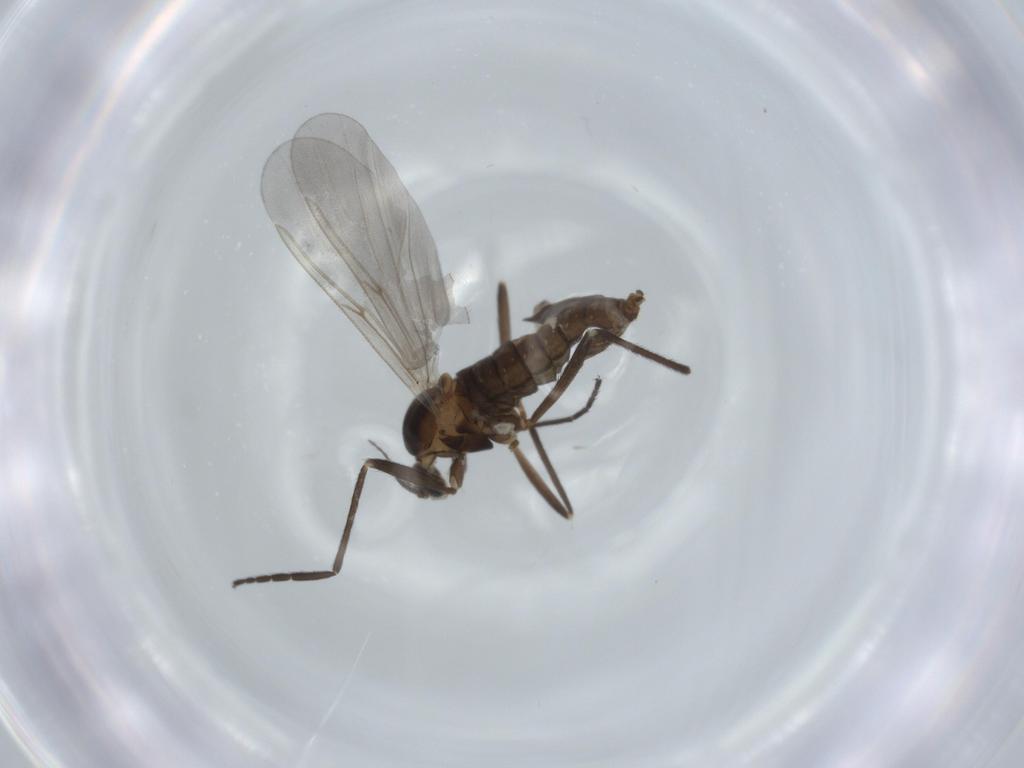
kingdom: Animalia
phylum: Arthropoda
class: Insecta
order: Diptera
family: Cecidomyiidae
